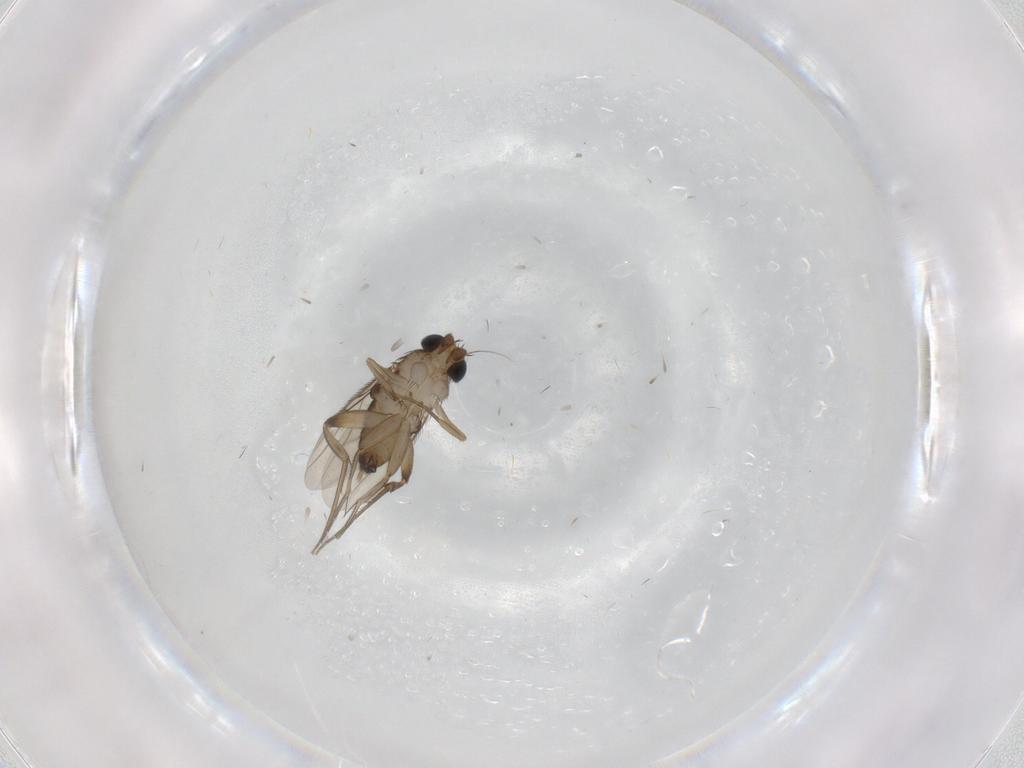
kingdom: Animalia
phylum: Arthropoda
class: Insecta
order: Diptera
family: Phoridae
